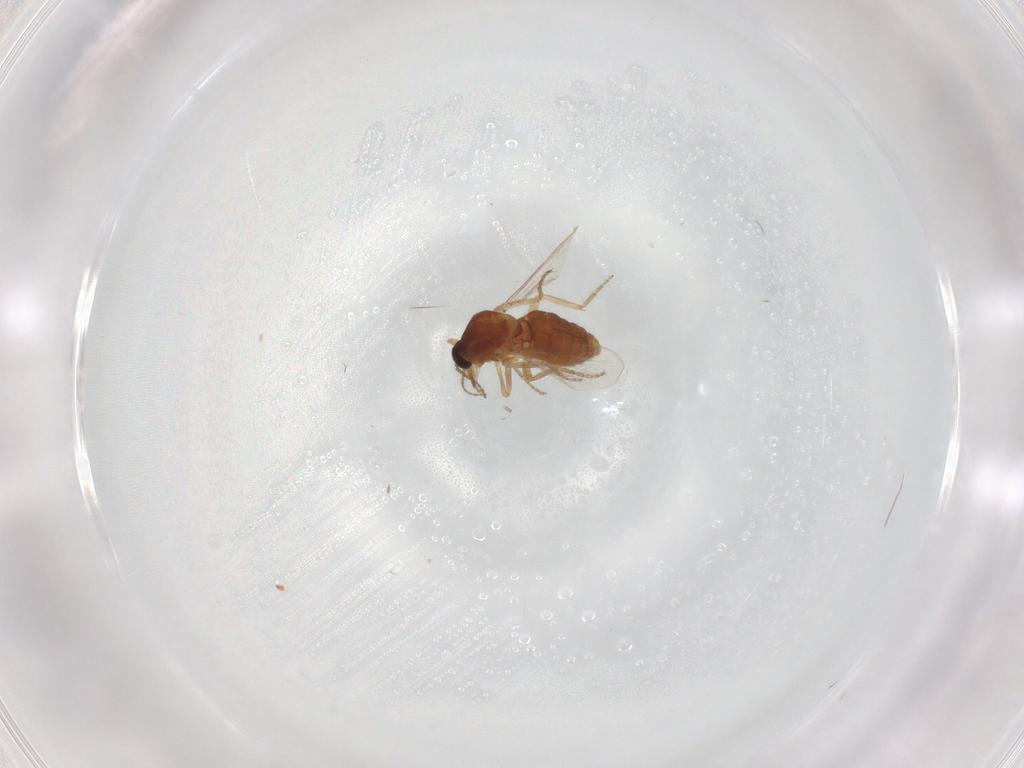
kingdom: Animalia
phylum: Arthropoda
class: Insecta
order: Diptera
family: Ceratopogonidae
